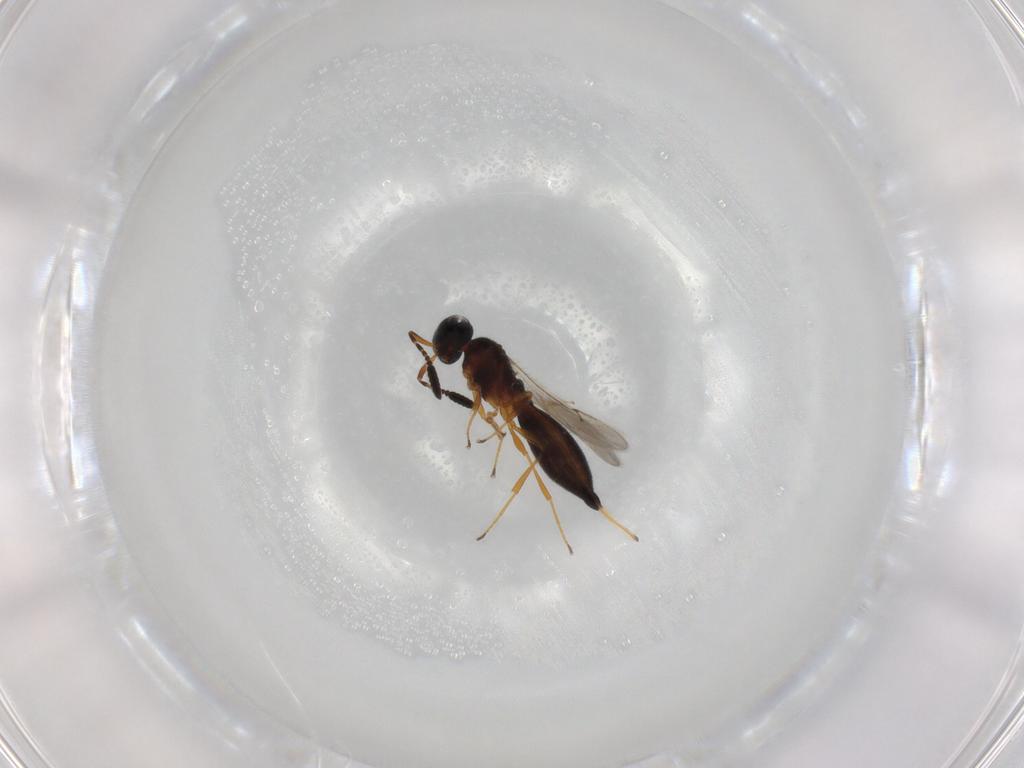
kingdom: Animalia
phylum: Arthropoda
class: Insecta
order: Hymenoptera
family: Scelionidae
